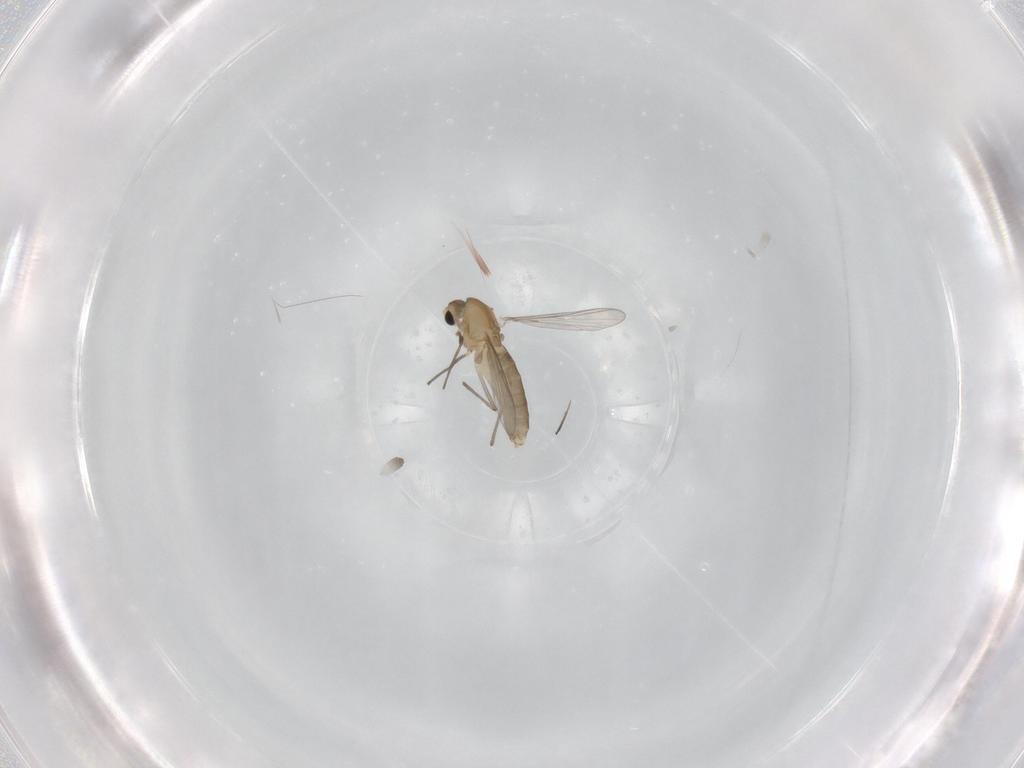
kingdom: Animalia
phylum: Arthropoda
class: Insecta
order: Diptera
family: Chironomidae
